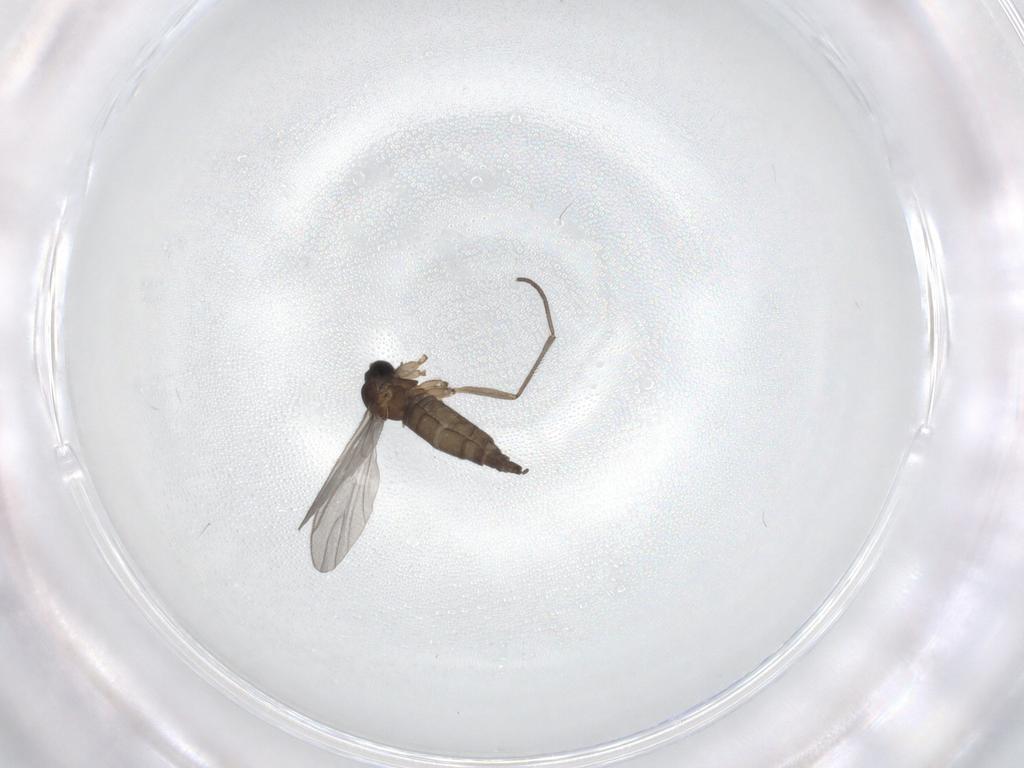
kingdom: Animalia
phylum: Arthropoda
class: Insecta
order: Diptera
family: Sciaridae
